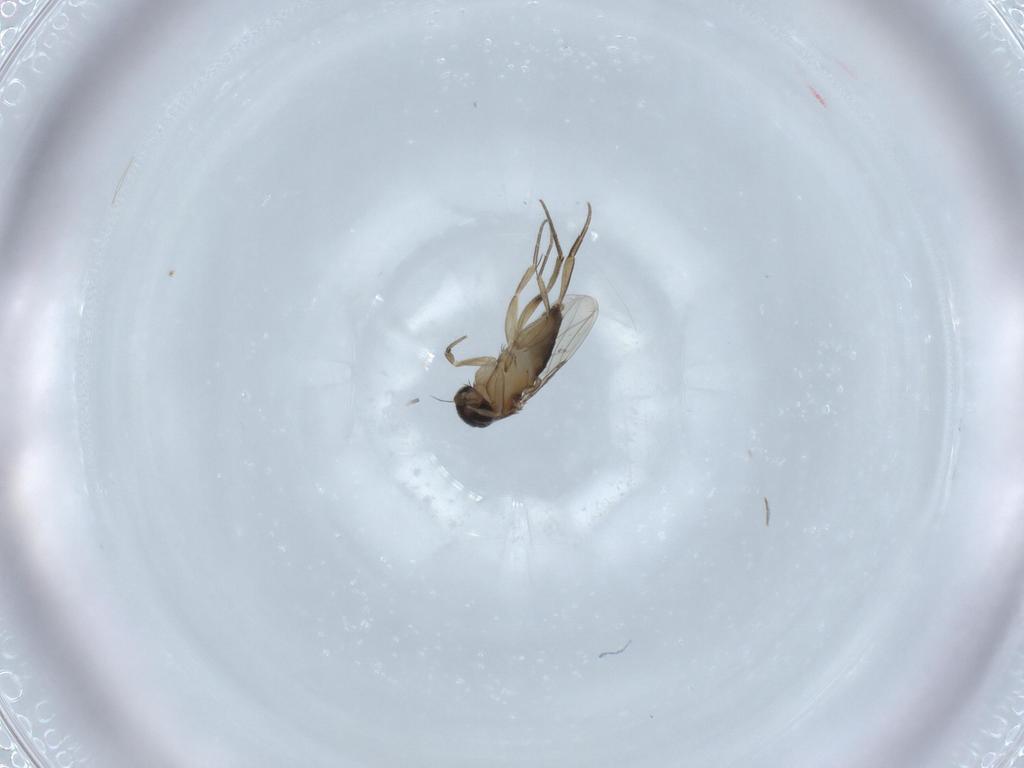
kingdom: Animalia
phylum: Arthropoda
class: Insecta
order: Diptera
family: Phoridae
